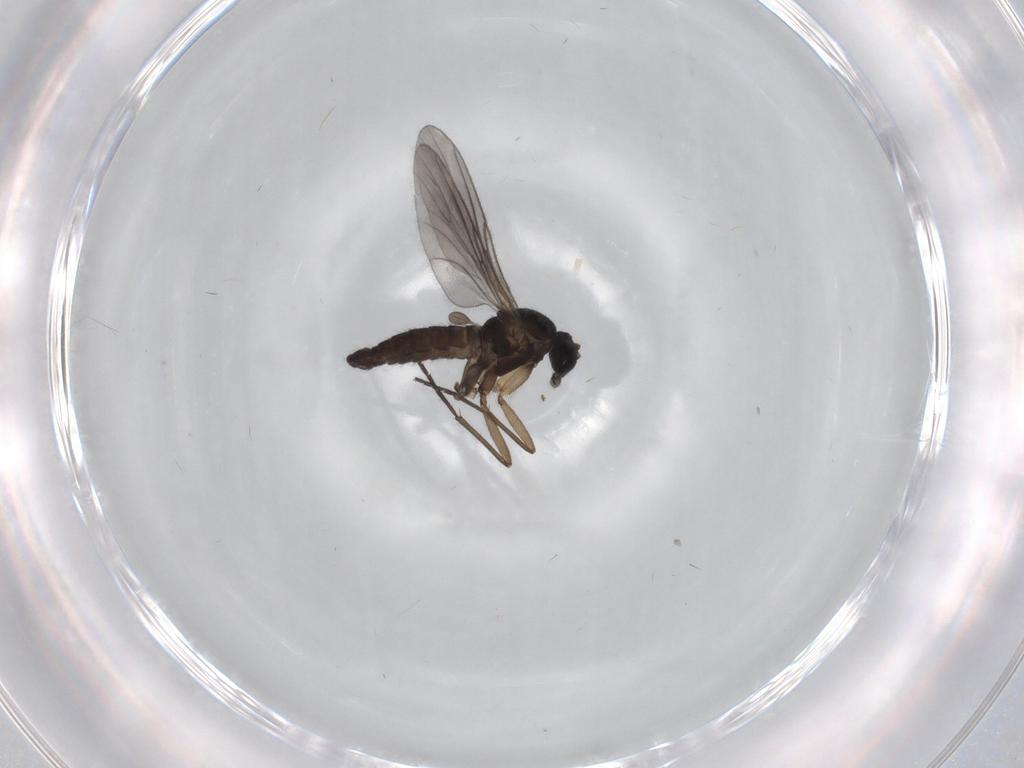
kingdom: Animalia
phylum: Arthropoda
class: Insecta
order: Diptera
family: Sciaridae
